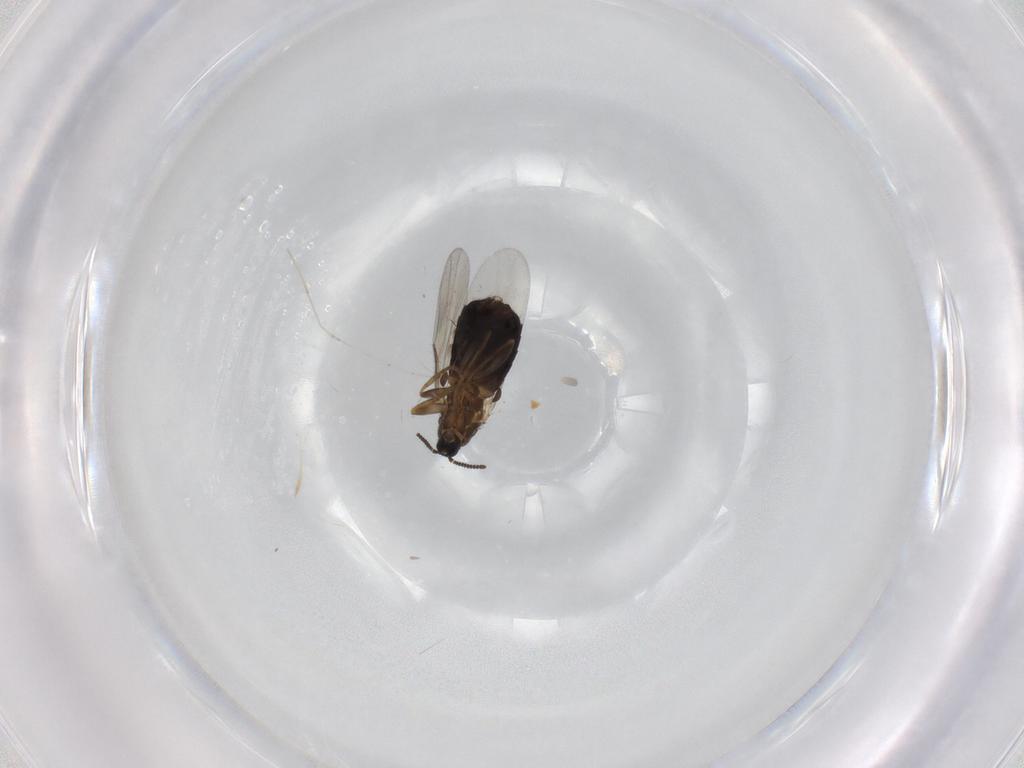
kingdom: Animalia
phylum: Arthropoda
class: Insecta
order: Diptera
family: Scatopsidae
